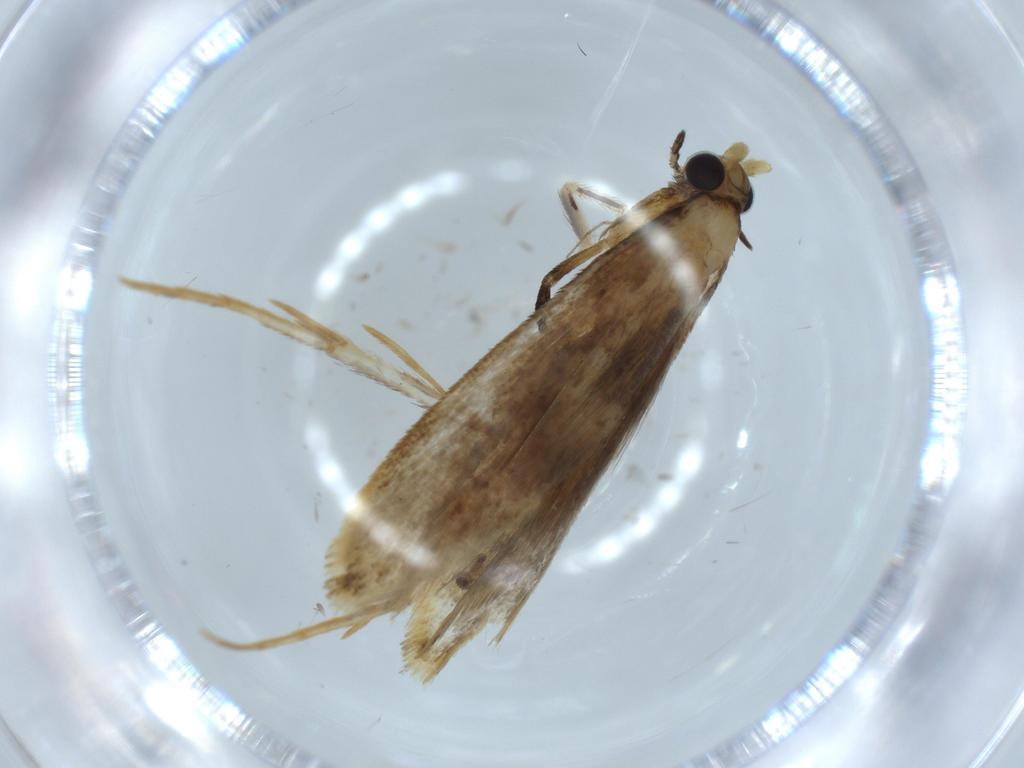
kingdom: Animalia
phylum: Arthropoda
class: Insecta
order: Lepidoptera
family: Tineidae
